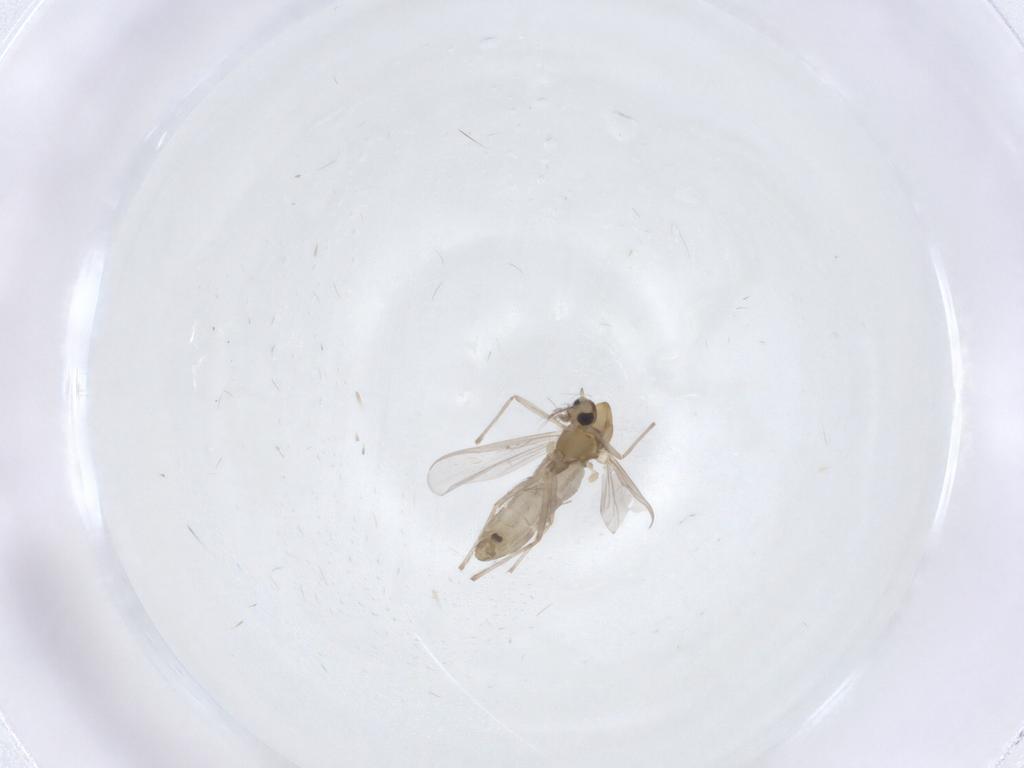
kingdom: Animalia
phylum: Arthropoda
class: Insecta
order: Diptera
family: Chironomidae
